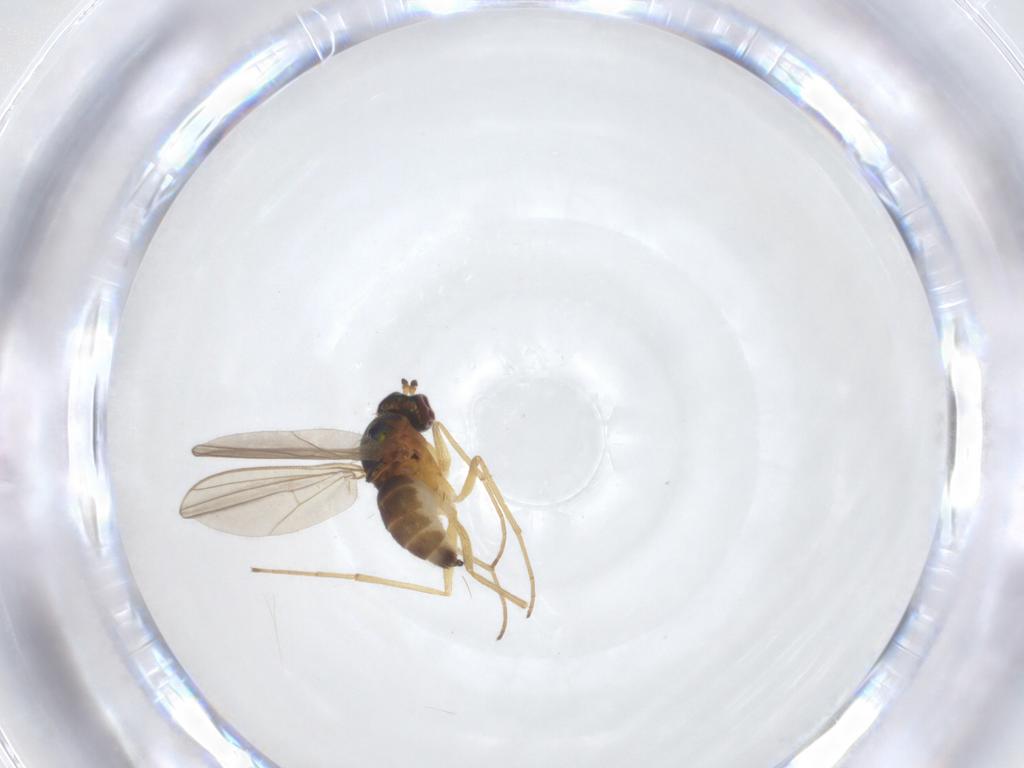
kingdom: Animalia
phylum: Arthropoda
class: Insecta
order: Diptera
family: Dolichopodidae
